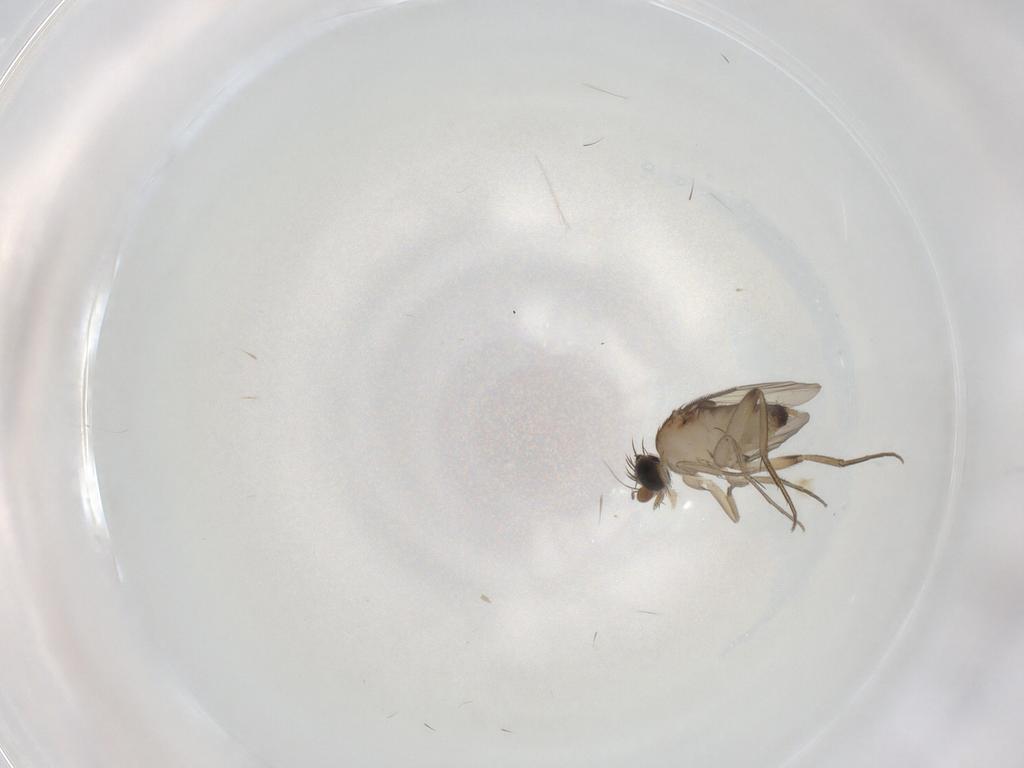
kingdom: Animalia
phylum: Arthropoda
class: Insecta
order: Diptera
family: Phoridae
